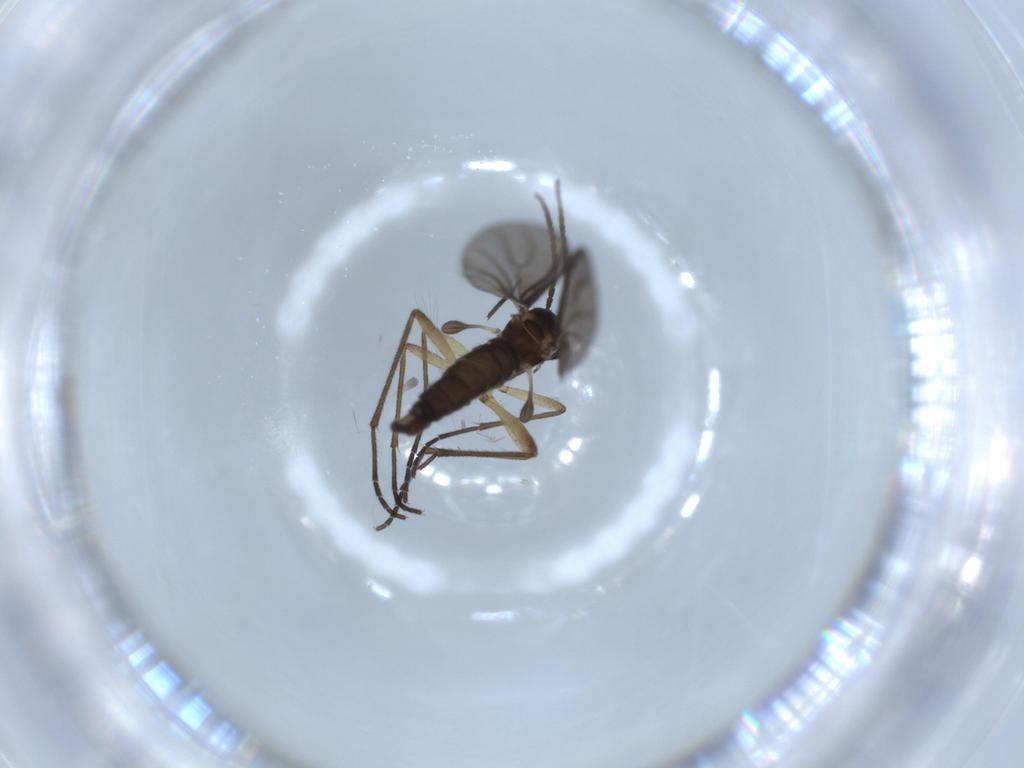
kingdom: Animalia
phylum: Arthropoda
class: Insecta
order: Diptera
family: Sciaridae
